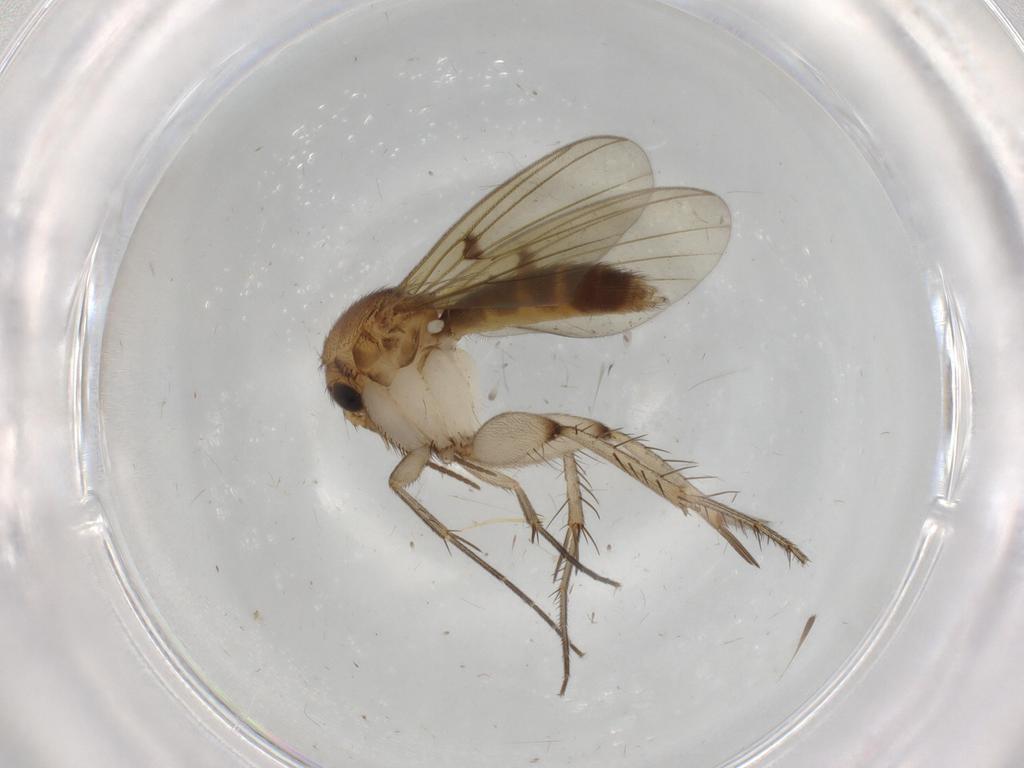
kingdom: Animalia
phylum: Arthropoda
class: Insecta
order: Diptera
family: Mycetophilidae
